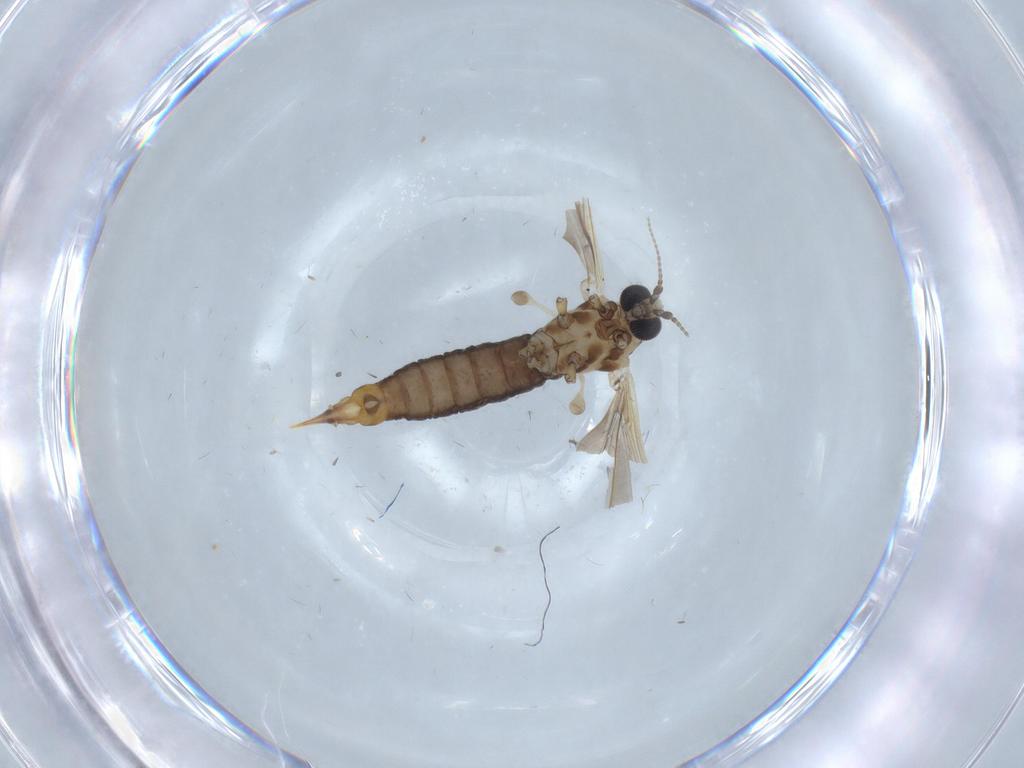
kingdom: Animalia
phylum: Arthropoda
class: Insecta
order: Diptera
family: Limoniidae
